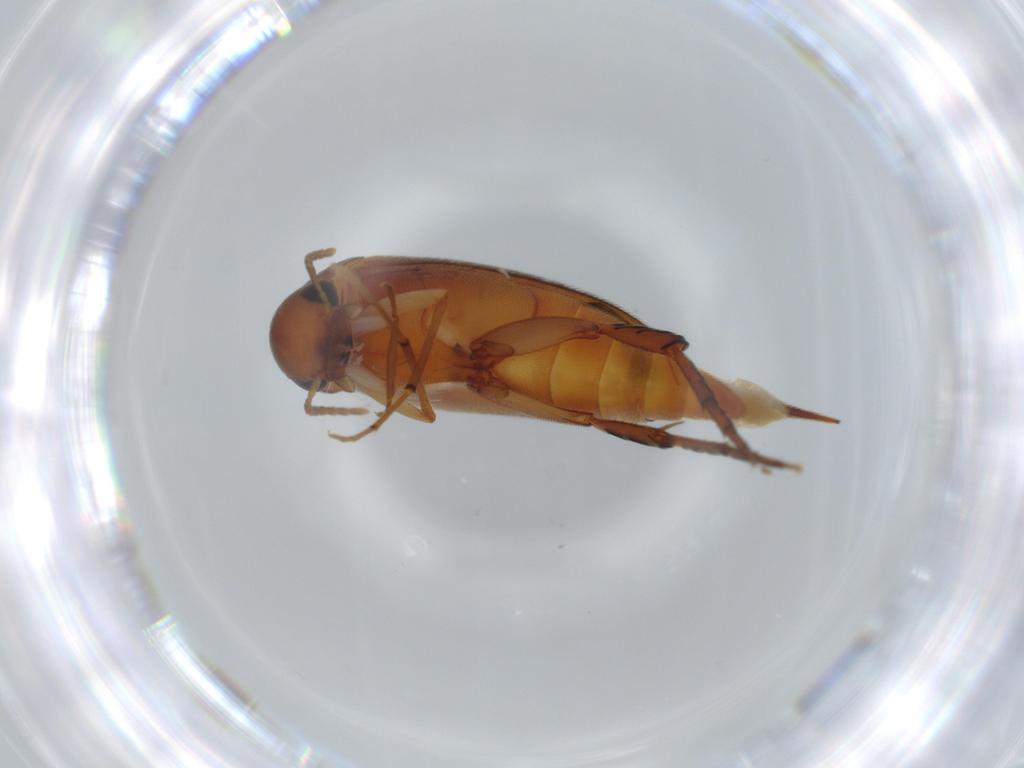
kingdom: Animalia
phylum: Arthropoda
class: Insecta
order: Coleoptera
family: Mordellidae
